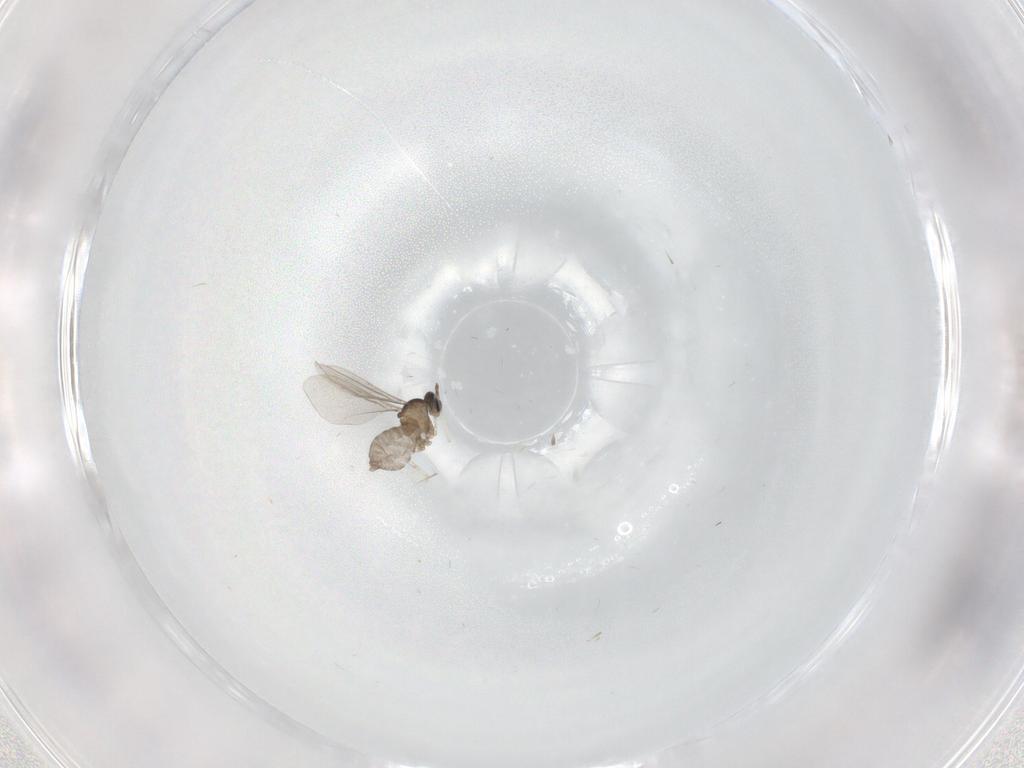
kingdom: Animalia
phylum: Arthropoda
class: Insecta
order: Diptera
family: Cecidomyiidae
